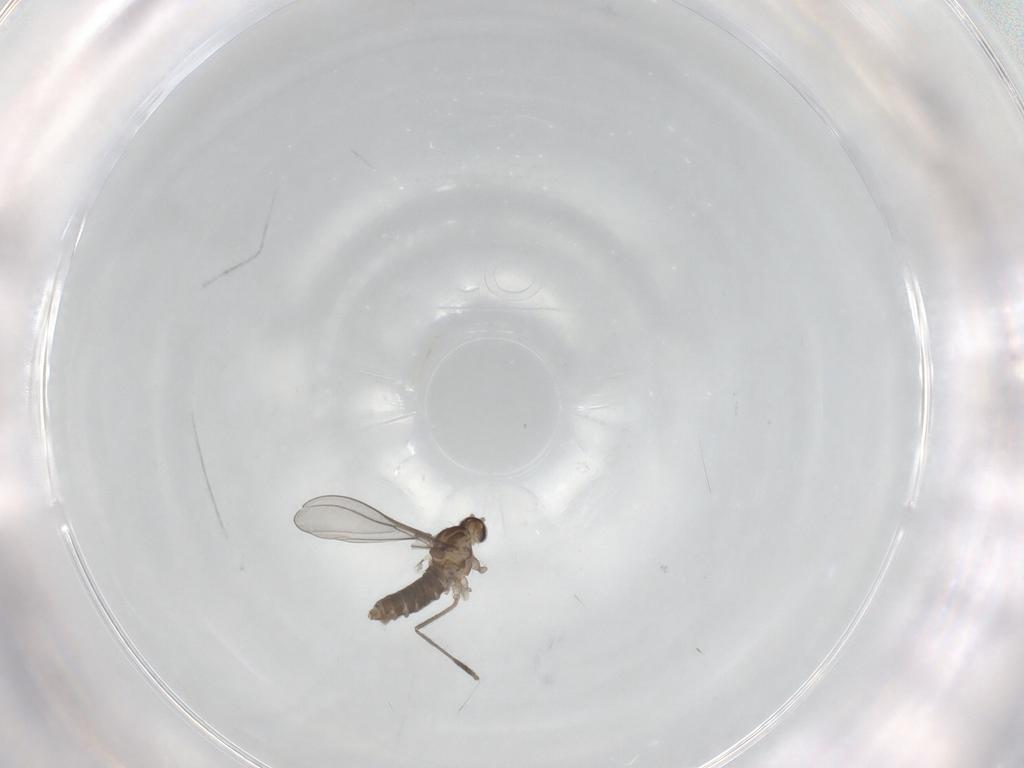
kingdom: Animalia
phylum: Arthropoda
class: Insecta
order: Diptera
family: Cecidomyiidae
